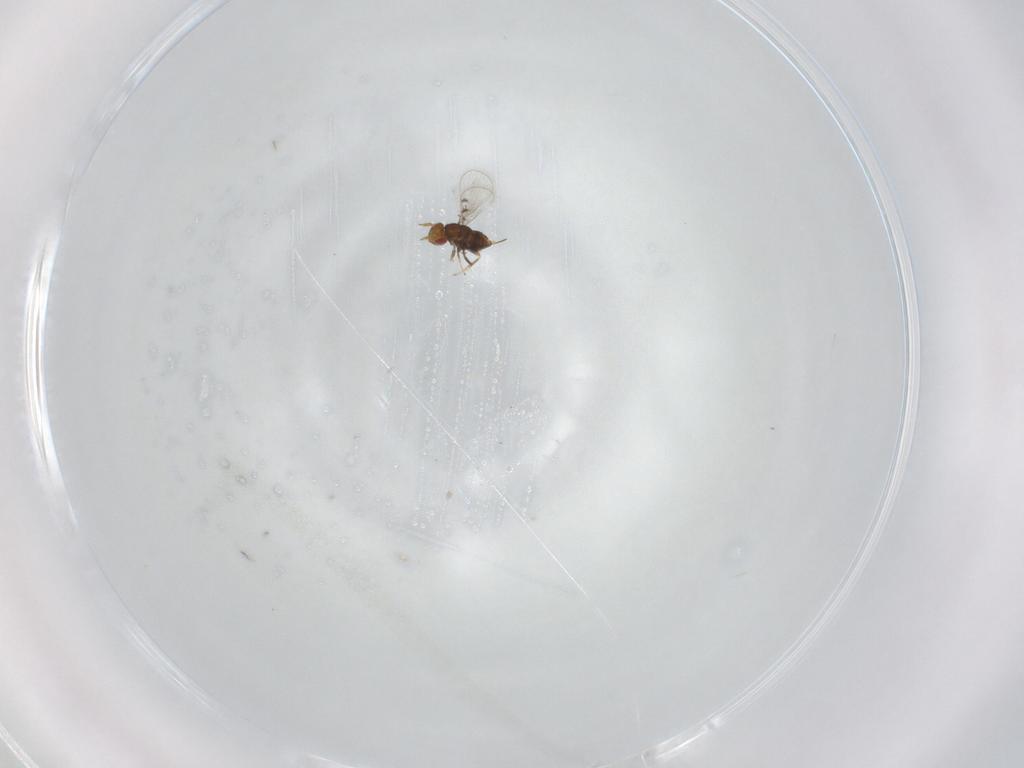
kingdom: Animalia
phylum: Arthropoda
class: Insecta
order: Hymenoptera
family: Trichogrammatidae
